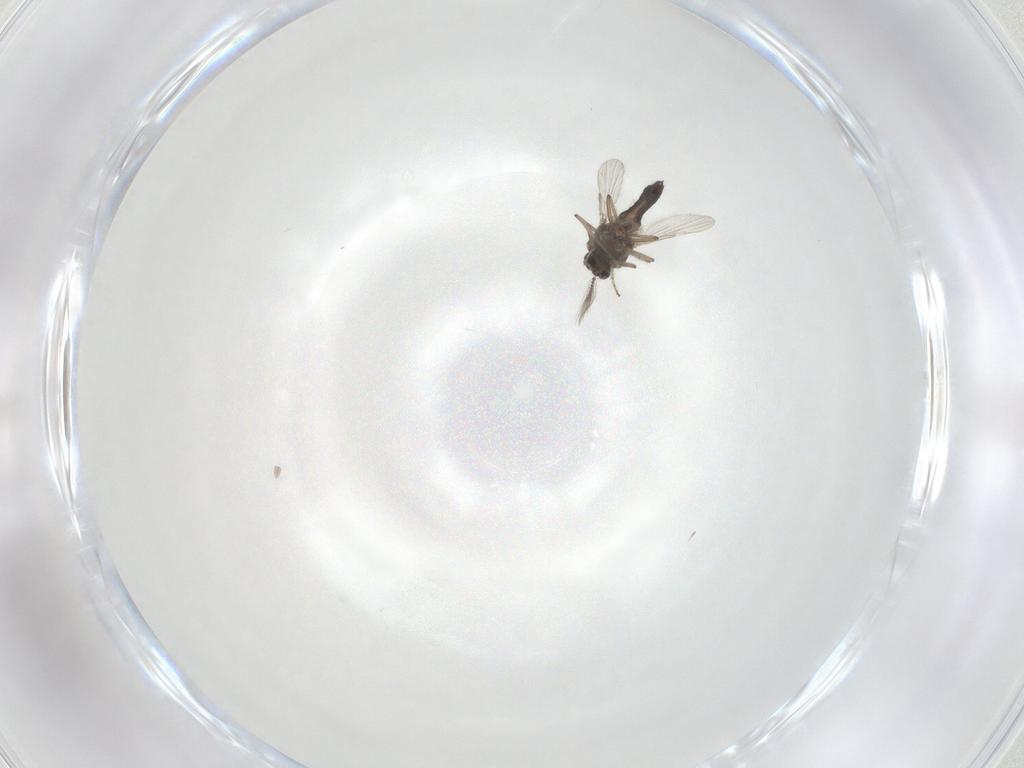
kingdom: Animalia
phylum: Arthropoda
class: Insecta
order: Diptera
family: Ceratopogonidae
